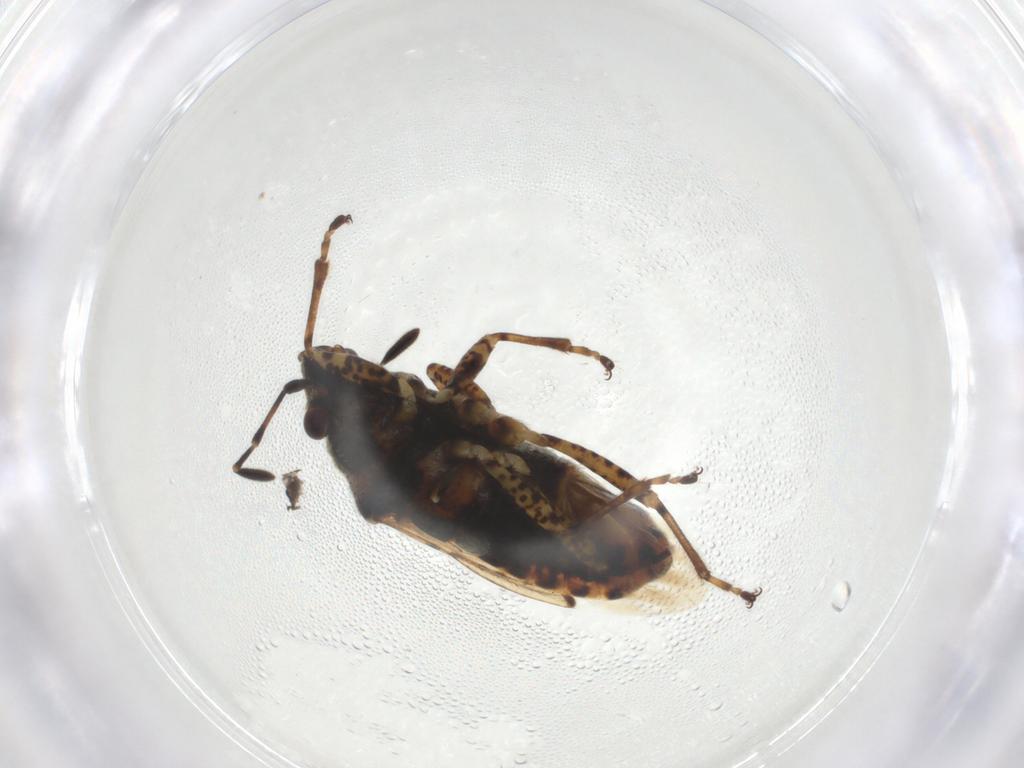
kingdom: Animalia
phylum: Arthropoda
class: Insecta
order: Hemiptera
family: Lygaeidae
